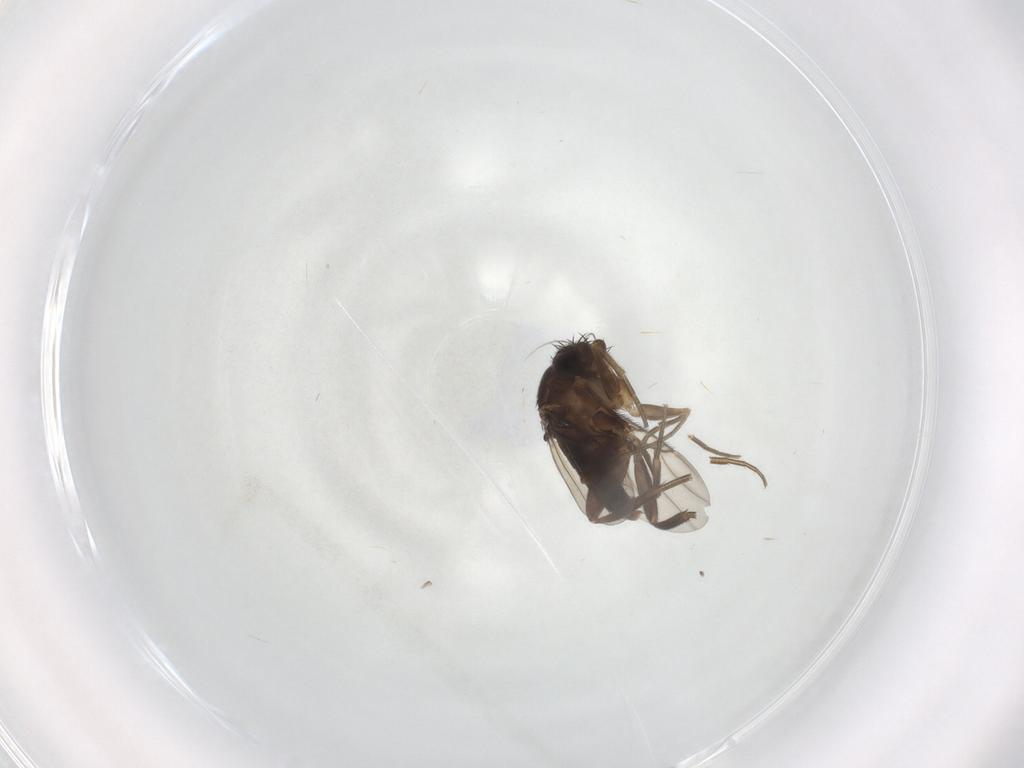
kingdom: Animalia
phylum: Arthropoda
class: Insecta
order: Diptera
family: Phoridae
